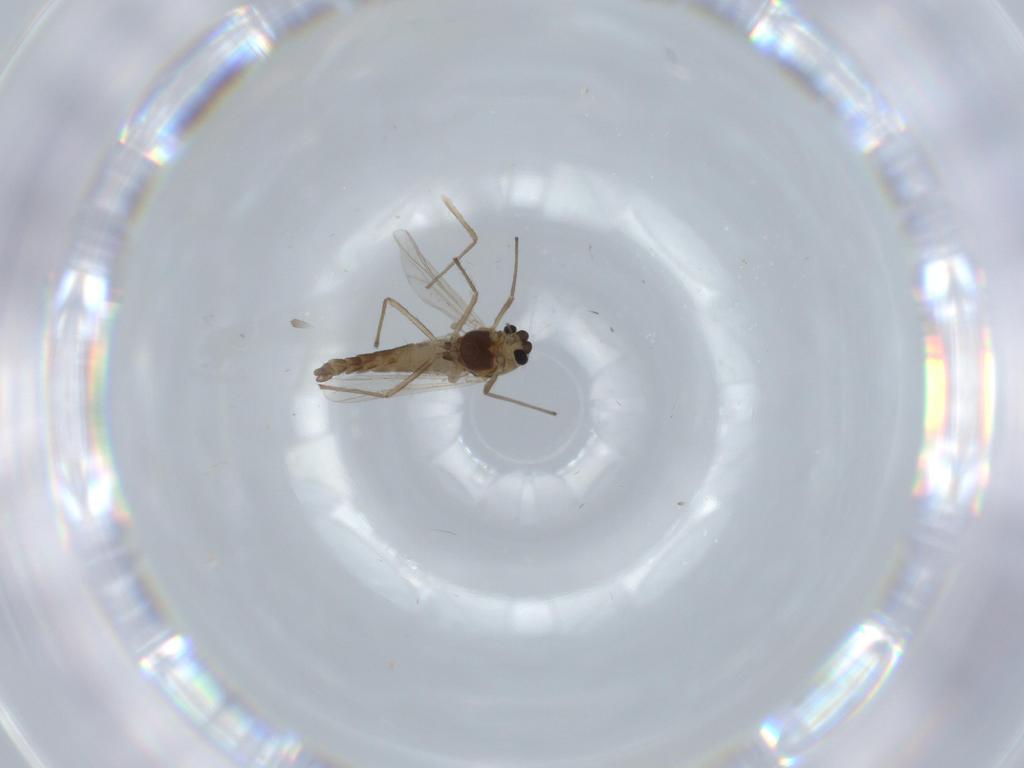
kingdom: Animalia
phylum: Arthropoda
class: Insecta
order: Diptera
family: Chironomidae
